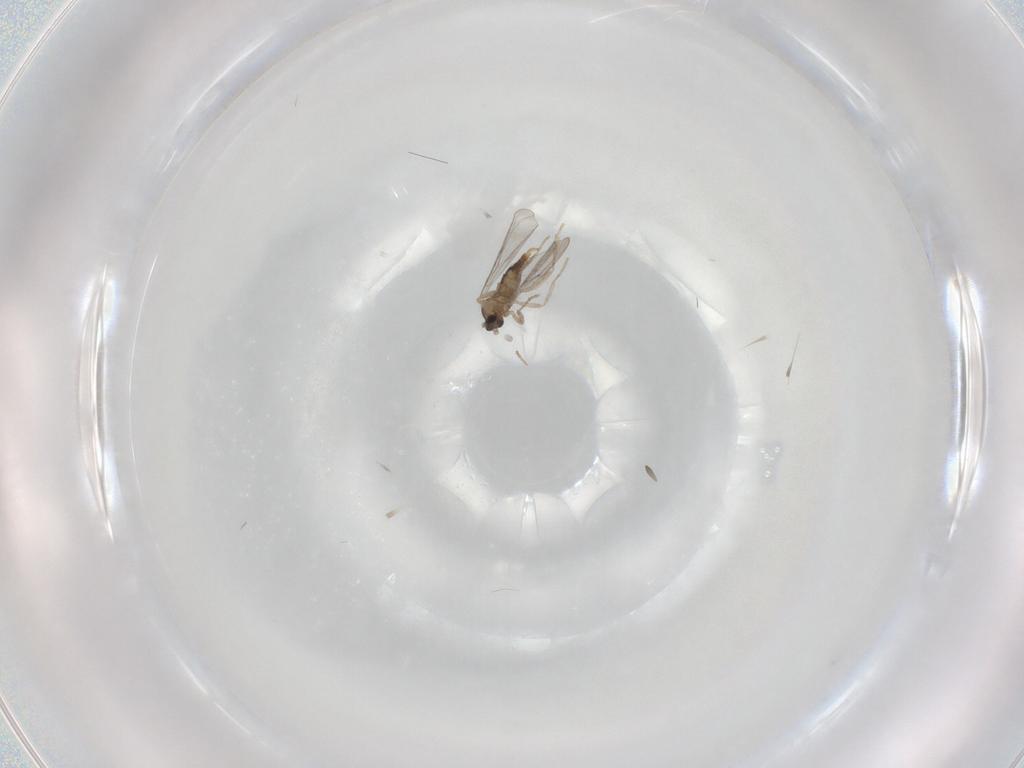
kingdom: Animalia
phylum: Arthropoda
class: Insecta
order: Diptera
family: Cecidomyiidae
